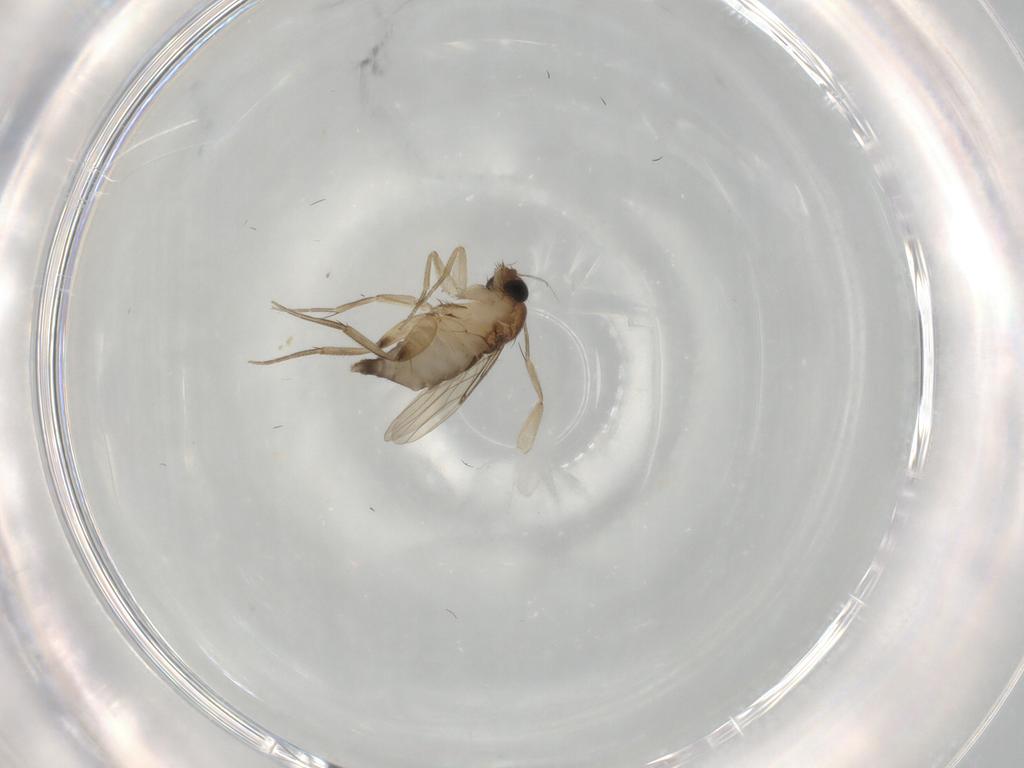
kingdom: Animalia
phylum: Arthropoda
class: Insecta
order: Diptera
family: Phoridae
